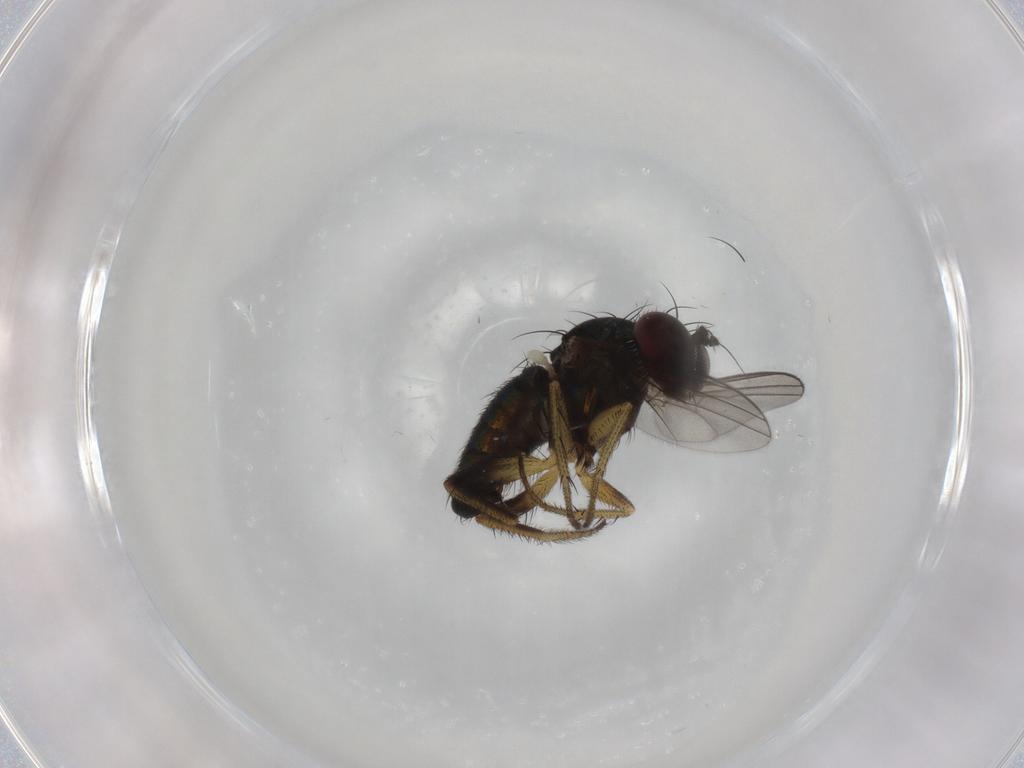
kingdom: Animalia
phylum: Arthropoda
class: Insecta
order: Diptera
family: Dolichopodidae
